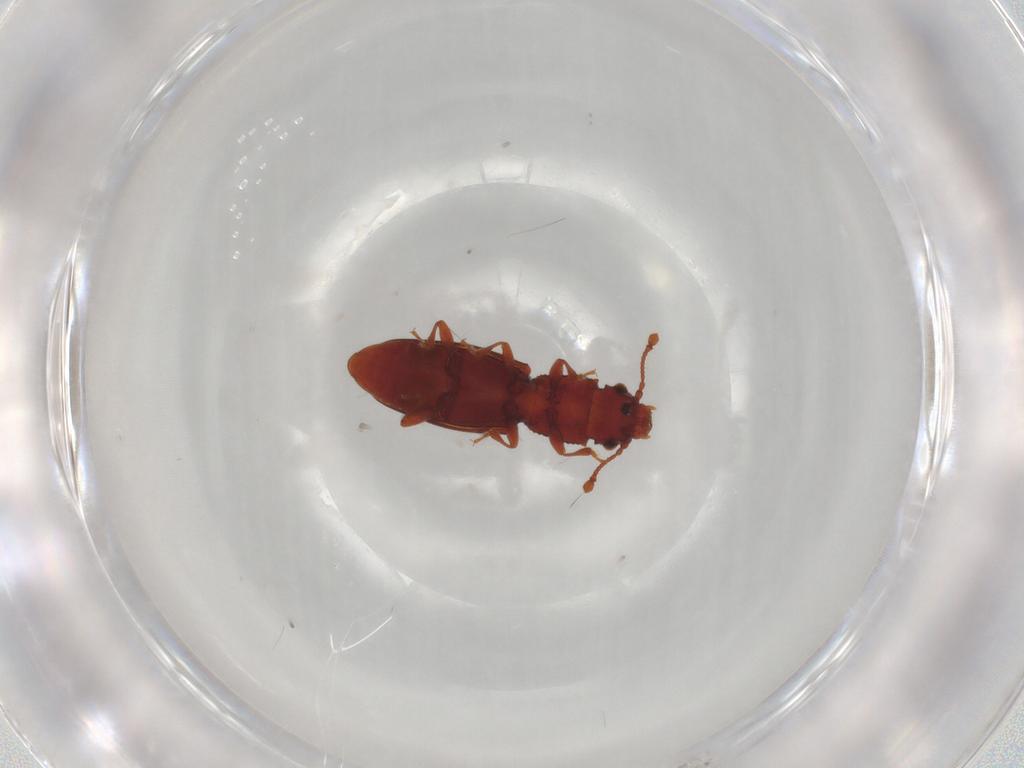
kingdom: Animalia
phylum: Arthropoda
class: Insecta
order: Coleoptera
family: Monotomidae
